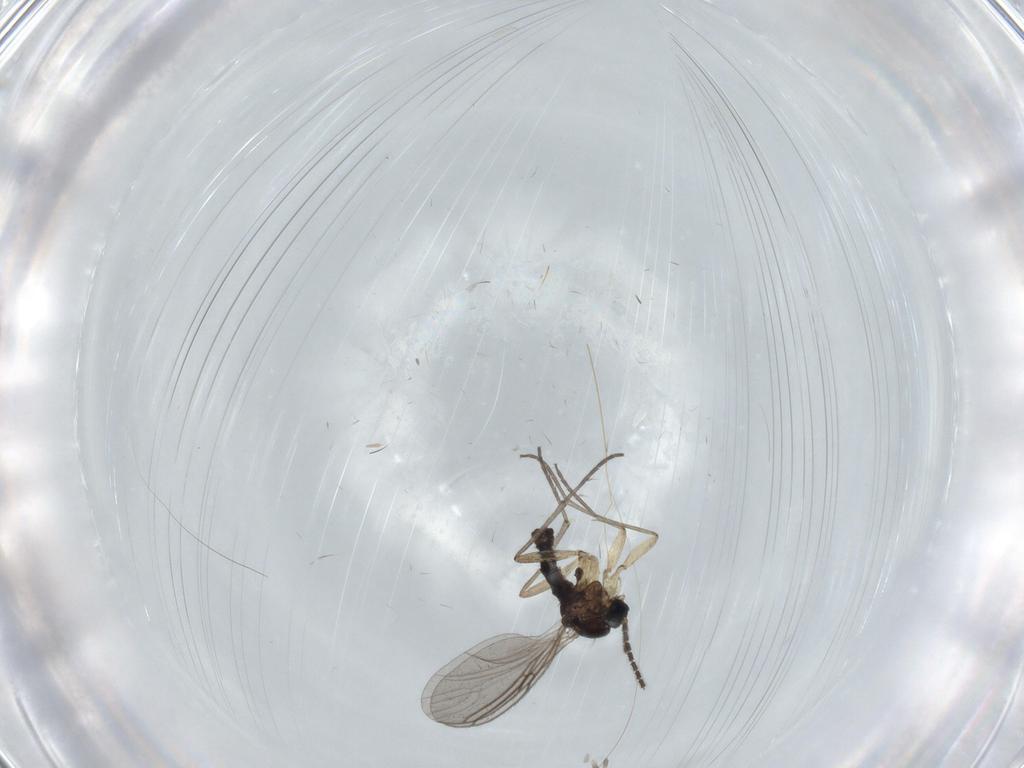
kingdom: Animalia
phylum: Arthropoda
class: Insecta
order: Diptera
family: Sciaridae
